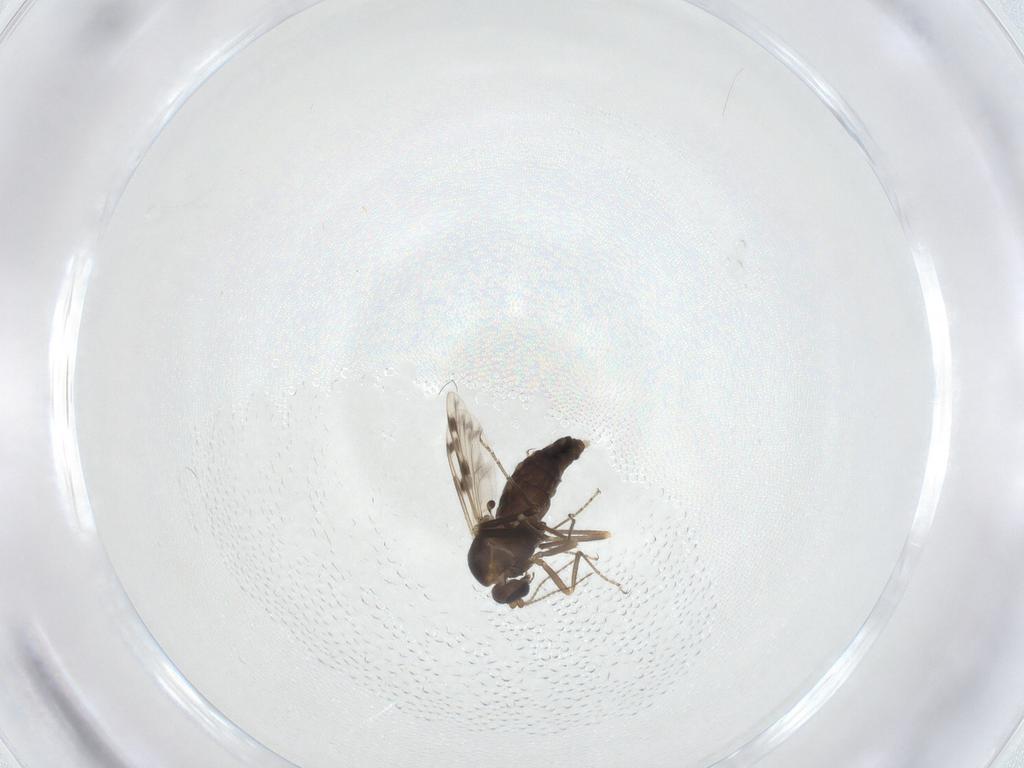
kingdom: Animalia
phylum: Arthropoda
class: Insecta
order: Diptera
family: Ceratopogonidae
